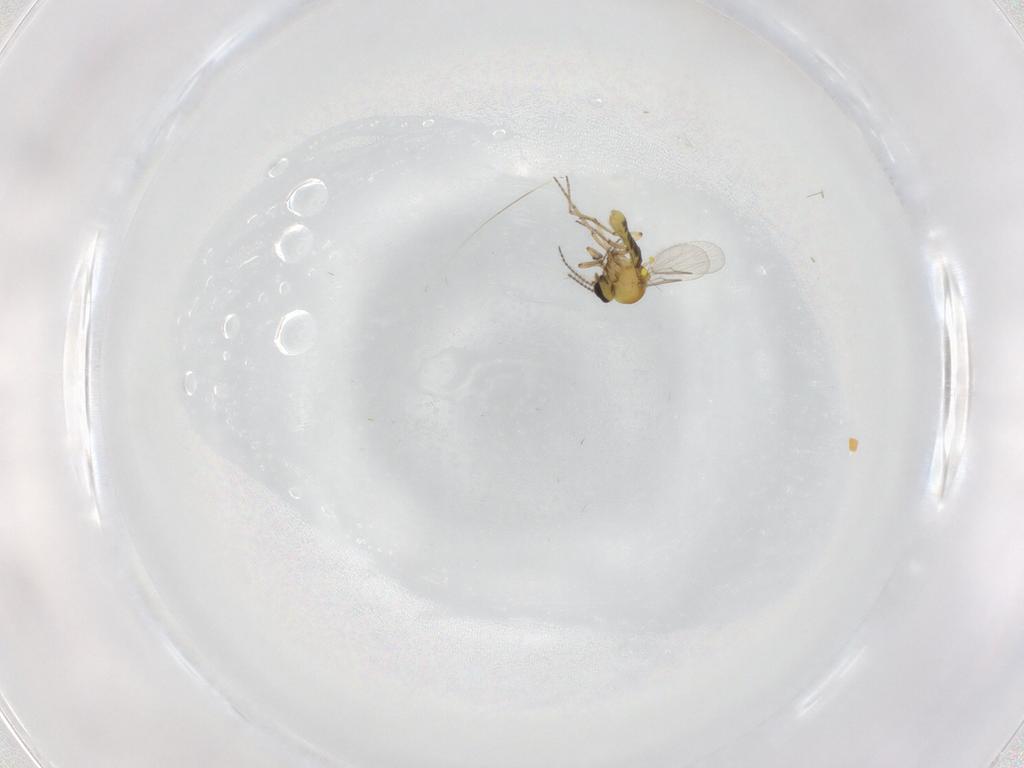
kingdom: Animalia
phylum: Arthropoda
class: Insecta
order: Diptera
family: Ceratopogonidae
